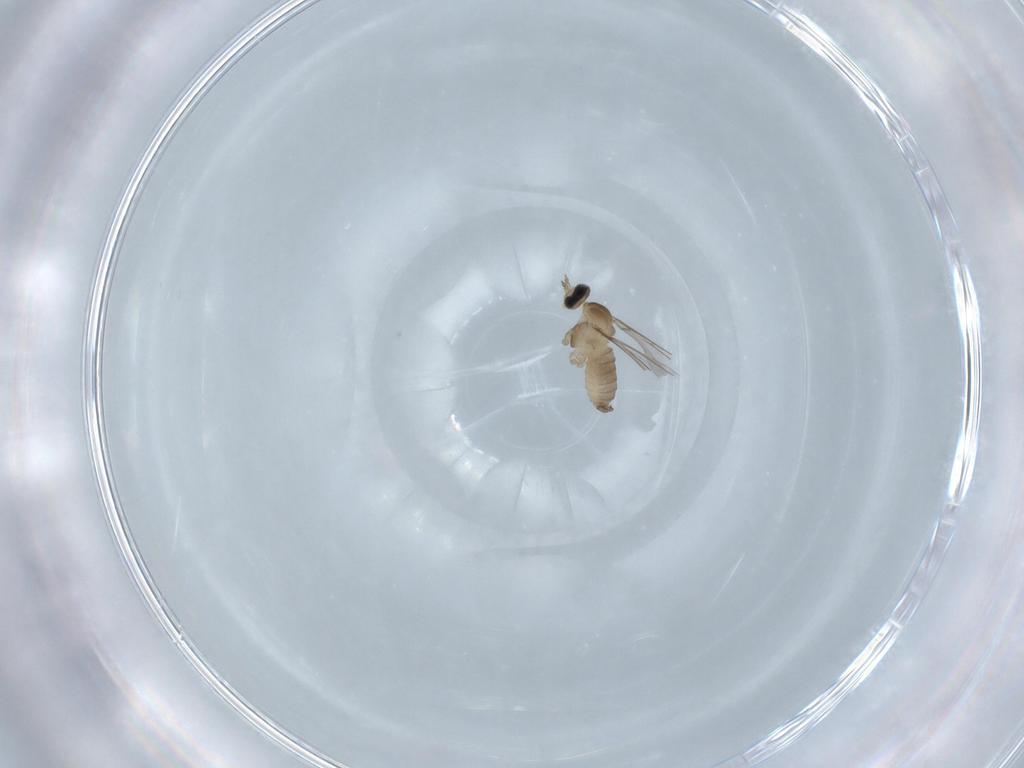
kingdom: Animalia
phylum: Arthropoda
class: Insecta
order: Diptera
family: Cecidomyiidae
